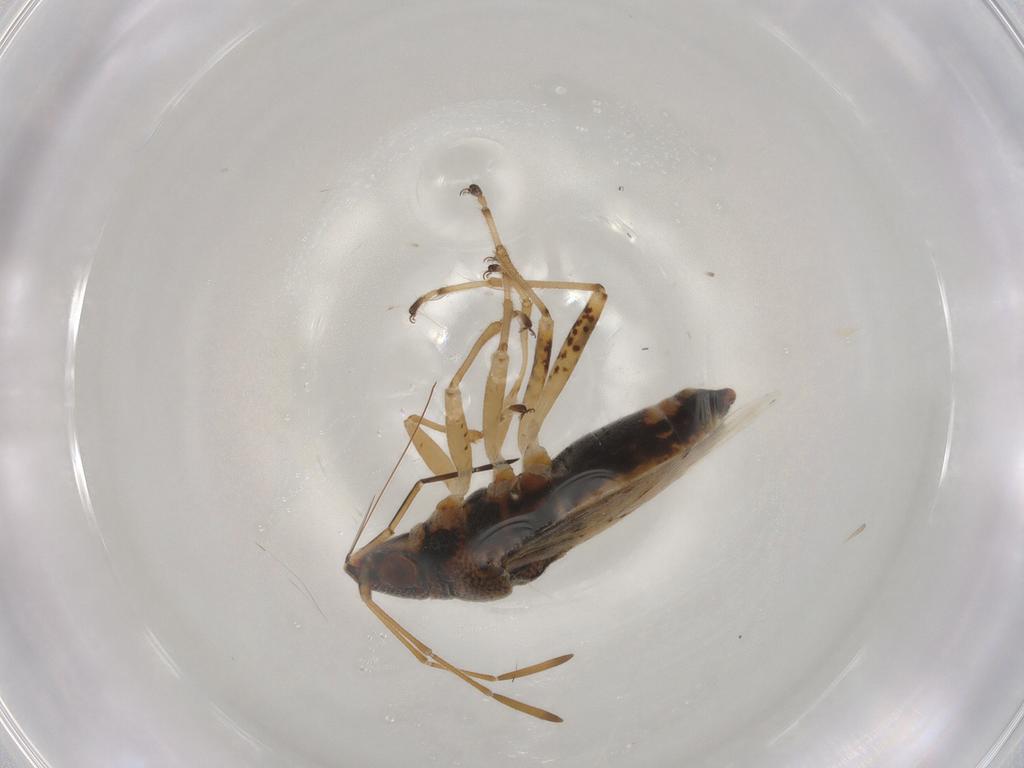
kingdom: Animalia
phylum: Arthropoda
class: Insecta
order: Hemiptera
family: Lygaeidae
